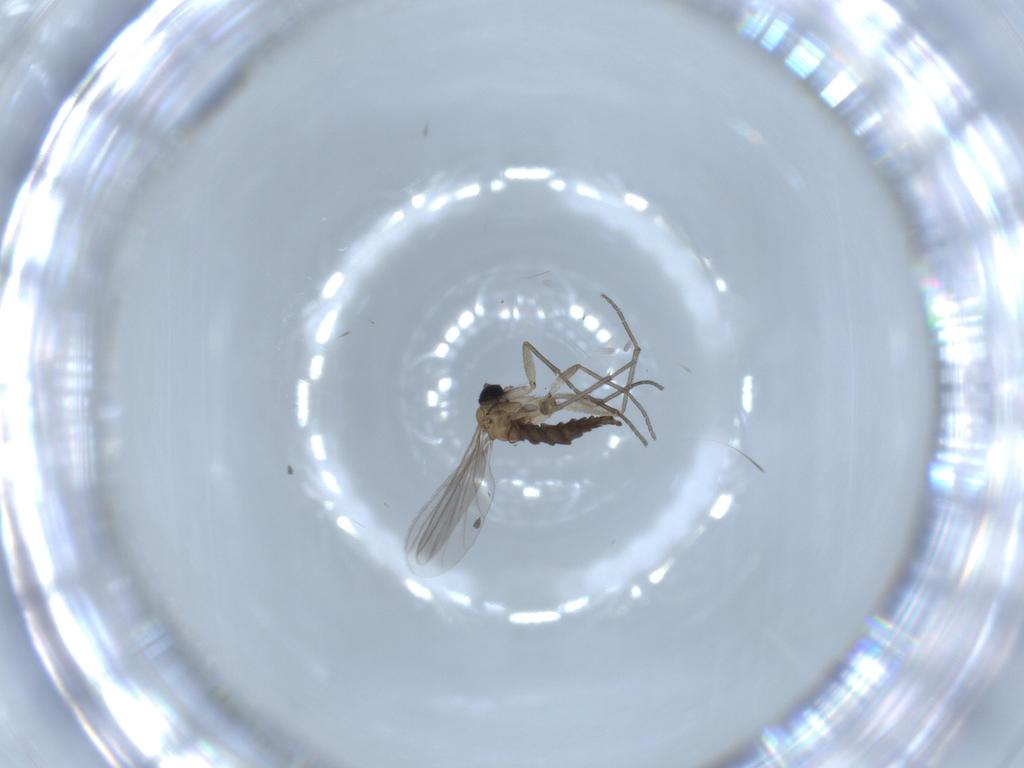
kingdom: Animalia
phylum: Arthropoda
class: Insecta
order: Diptera
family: Sciaridae
